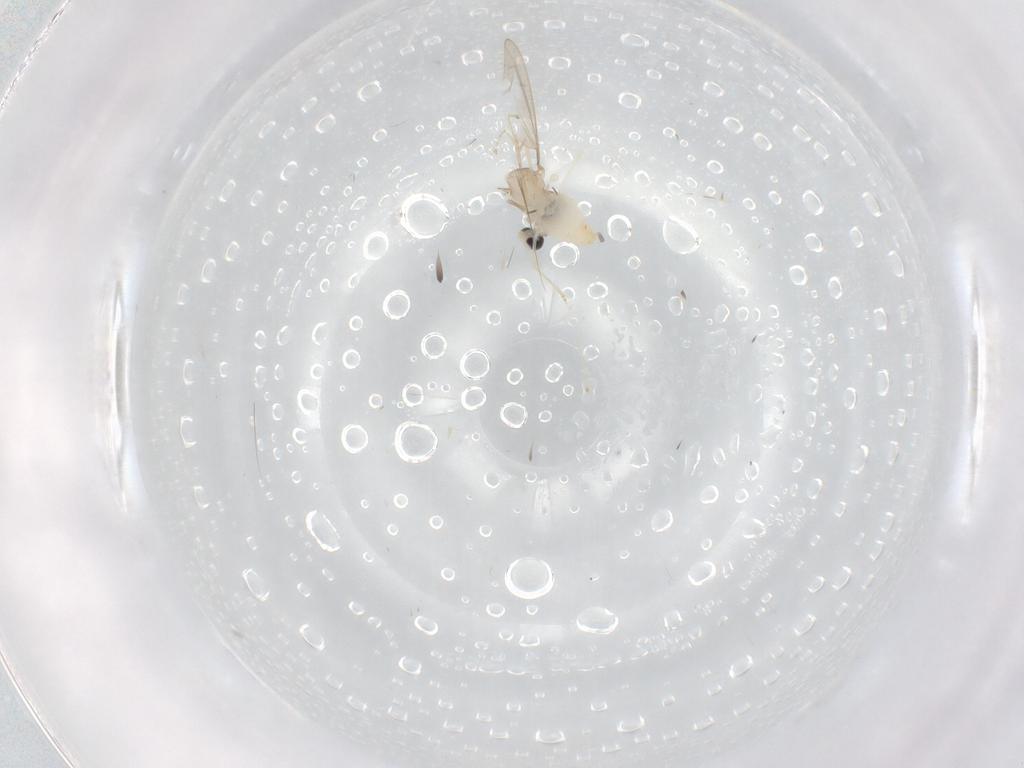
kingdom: Animalia
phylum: Arthropoda
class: Insecta
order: Diptera
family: Cecidomyiidae
